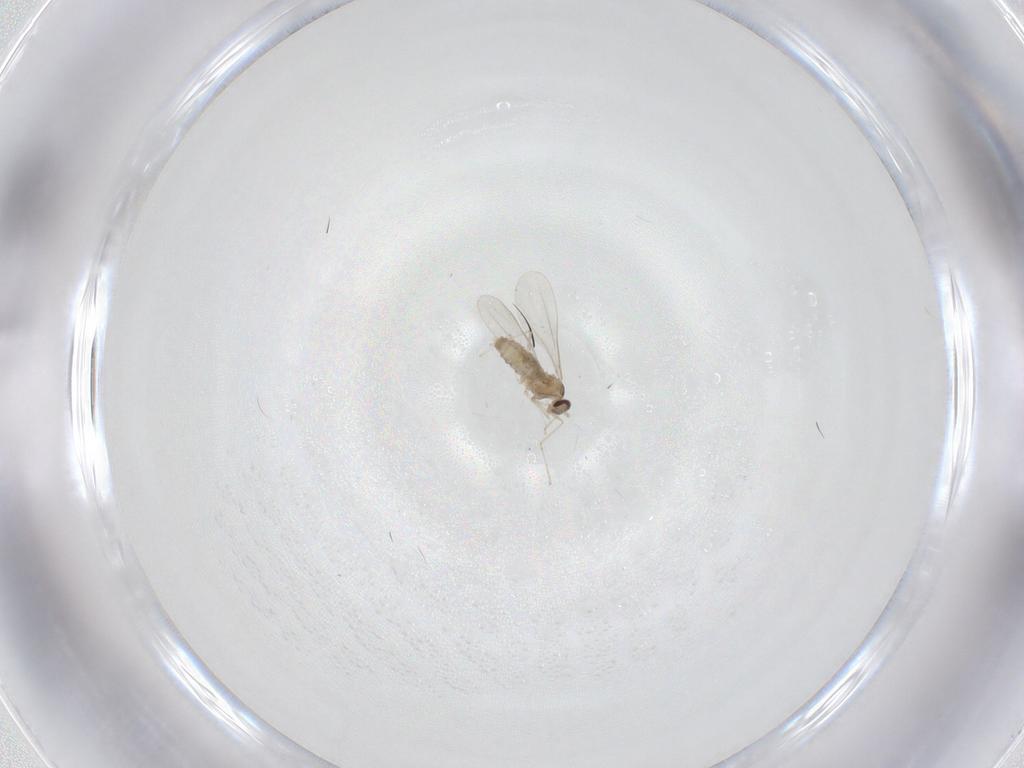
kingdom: Animalia
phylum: Arthropoda
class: Insecta
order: Diptera
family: Cecidomyiidae
